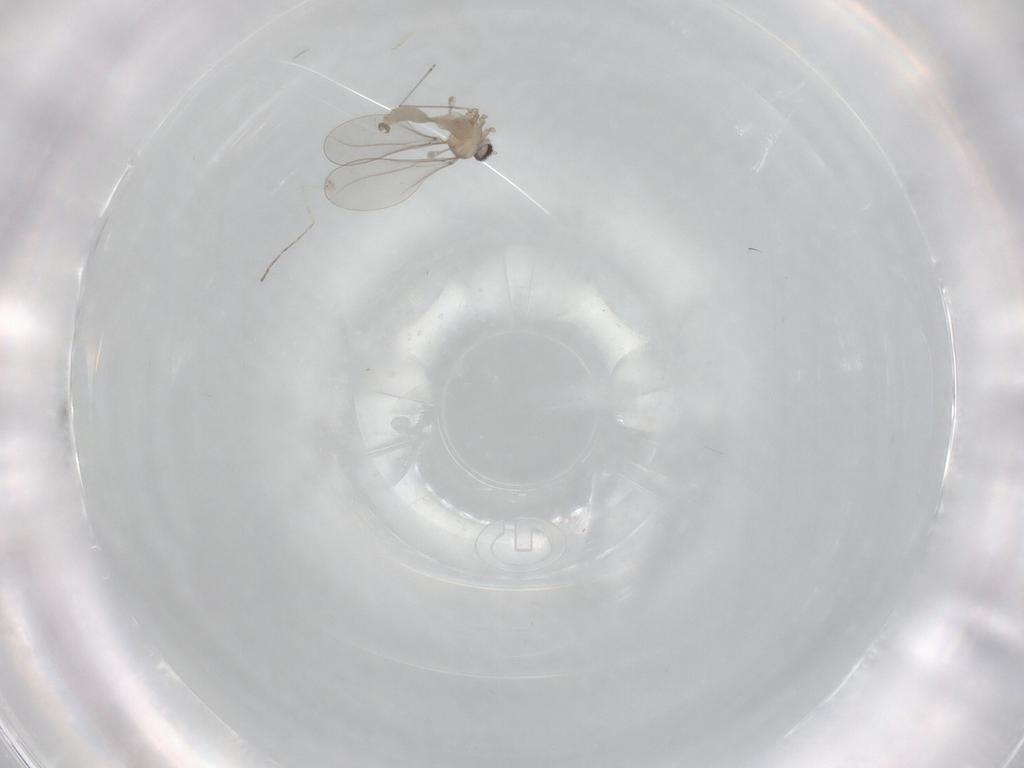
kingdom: Animalia
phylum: Arthropoda
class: Insecta
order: Diptera
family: Cecidomyiidae
